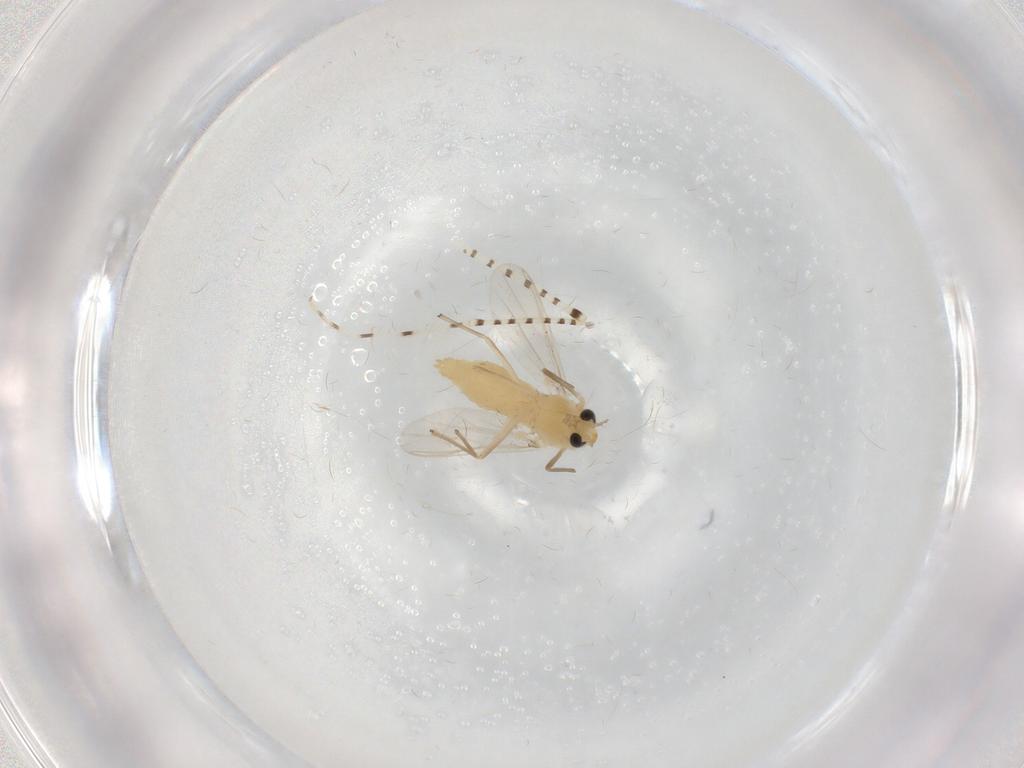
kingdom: Animalia
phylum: Arthropoda
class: Insecta
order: Diptera
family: Chironomidae
